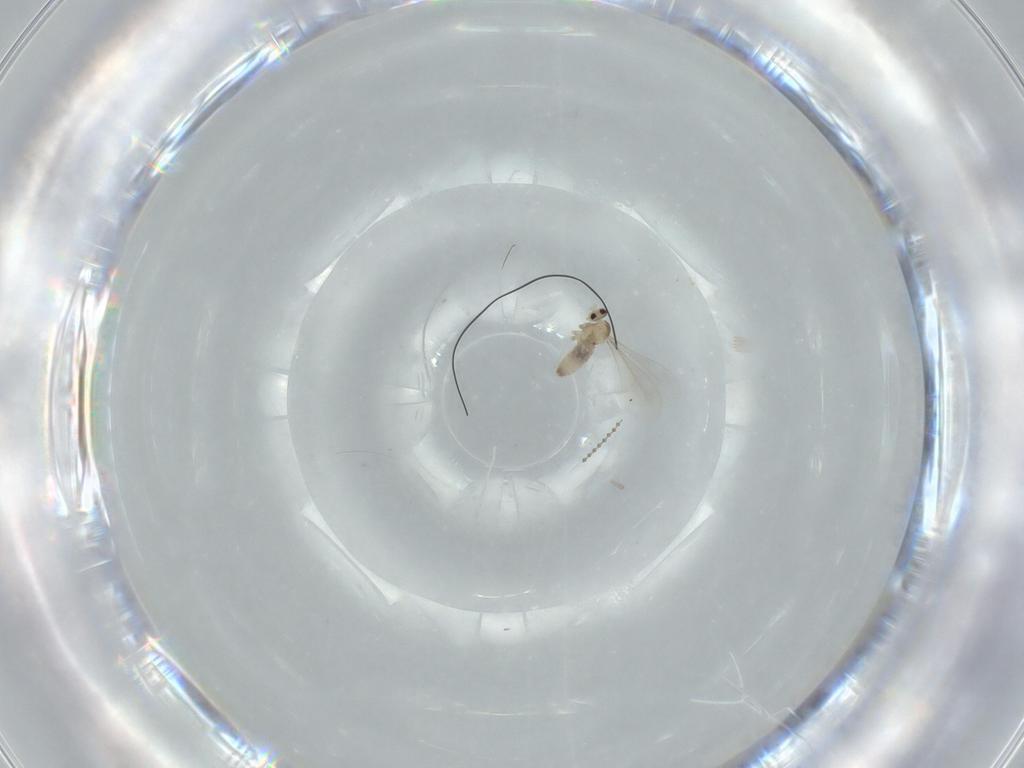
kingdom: Animalia
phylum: Arthropoda
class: Insecta
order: Diptera
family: Cecidomyiidae
